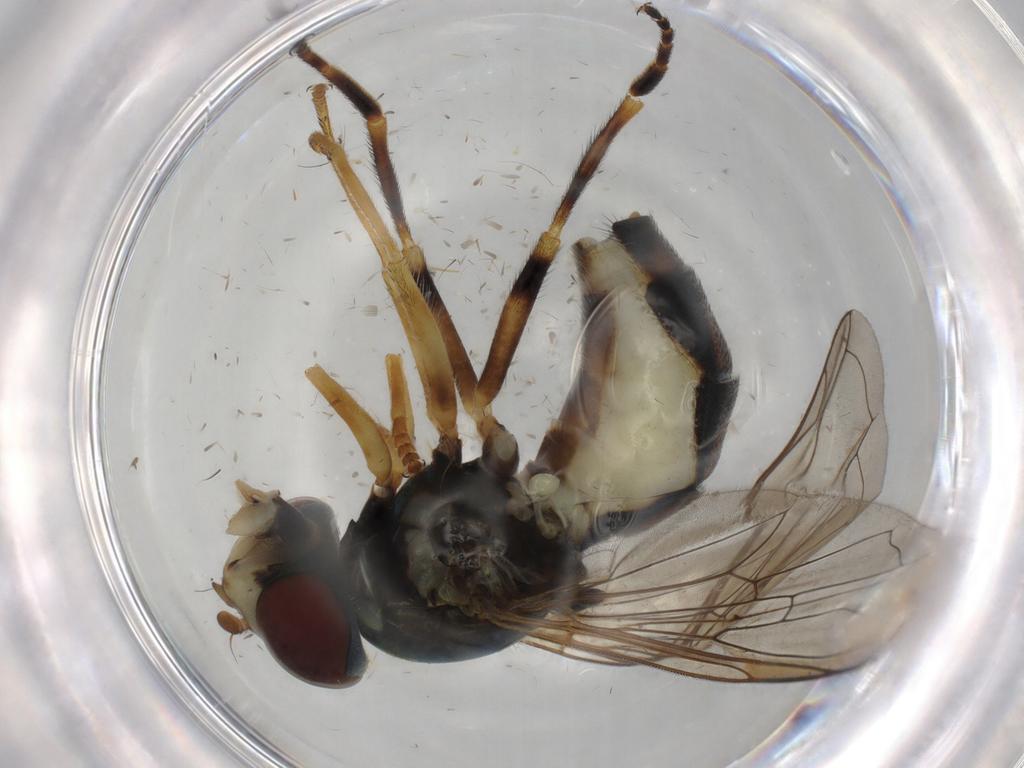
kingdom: Animalia
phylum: Arthropoda
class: Insecta
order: Diptera
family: Syrphidae
